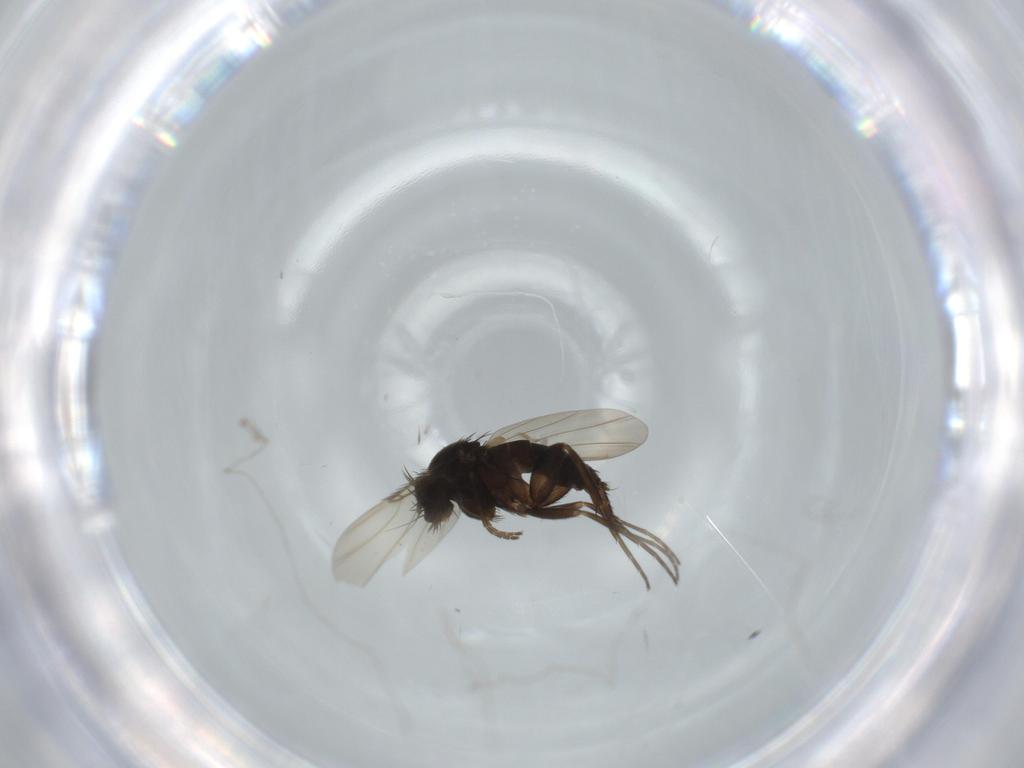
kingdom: Animalia
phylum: Arthropoda
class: Insecta
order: Diptera
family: Phoridae
